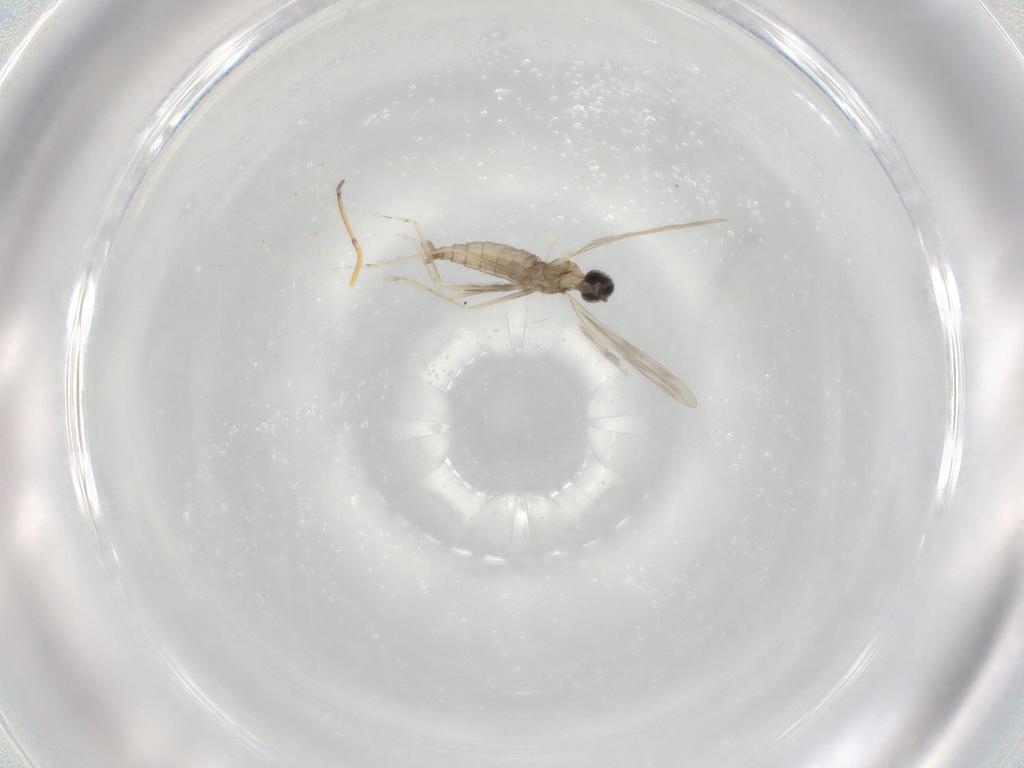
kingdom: Animalia
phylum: Arthropoda
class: Insecta
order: Diptera
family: Cecidomyiidae
